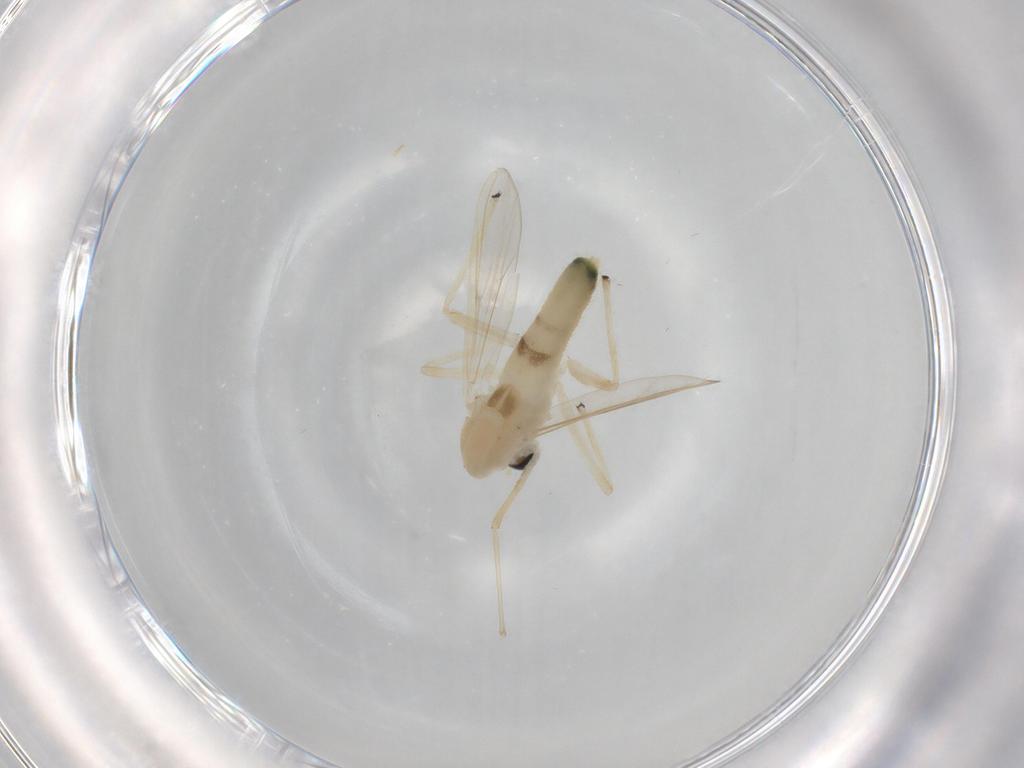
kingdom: Animalia
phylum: Arthropoda
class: Insecta
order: Diptera
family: Chironomidae
